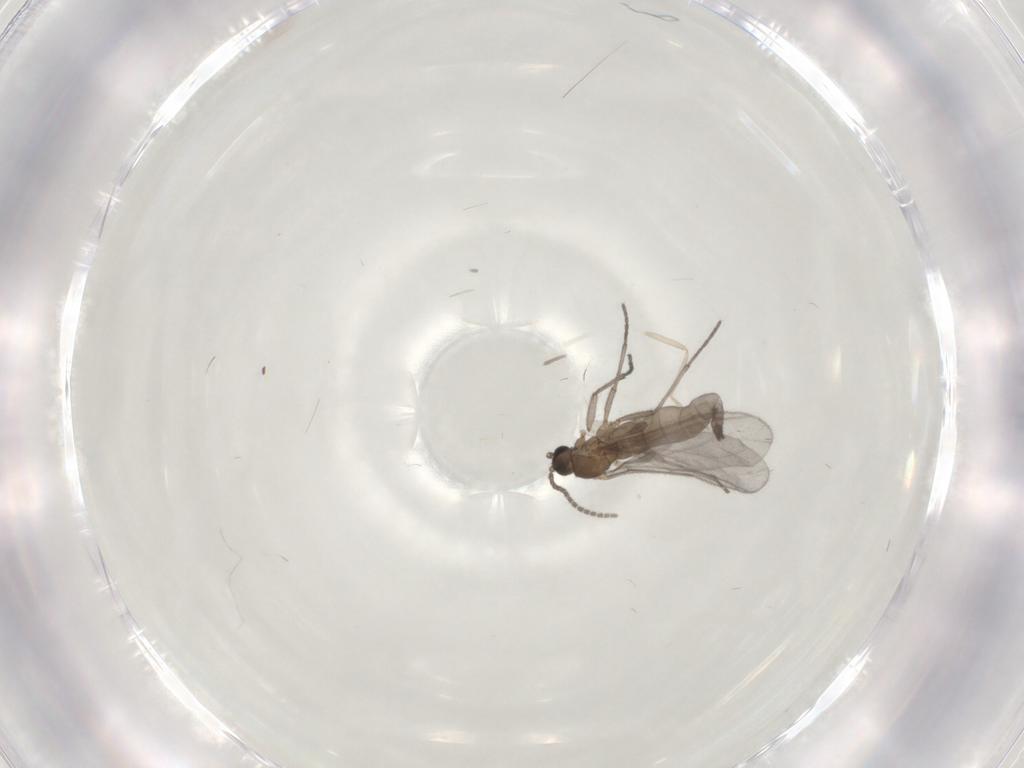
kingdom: Animalia
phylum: Arthropoda
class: Insecta
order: Diptera
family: Sciaridae
